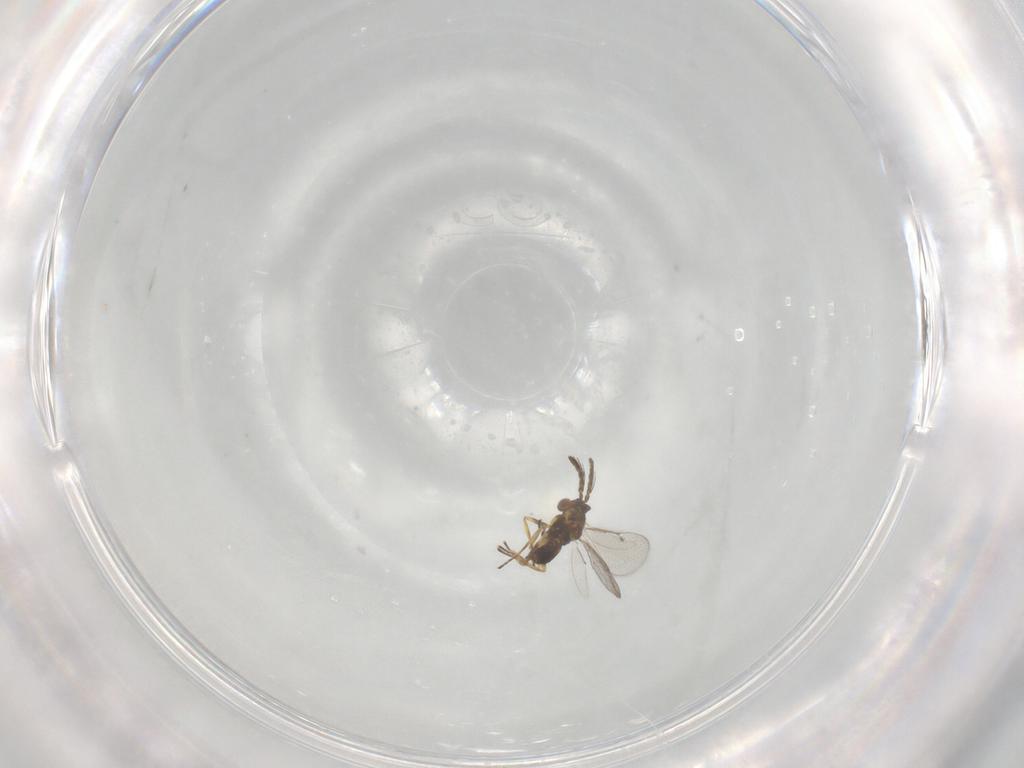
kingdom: Animalia
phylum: Arthropoda
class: Insecta
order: Hymenoptera
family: Eulophidae
